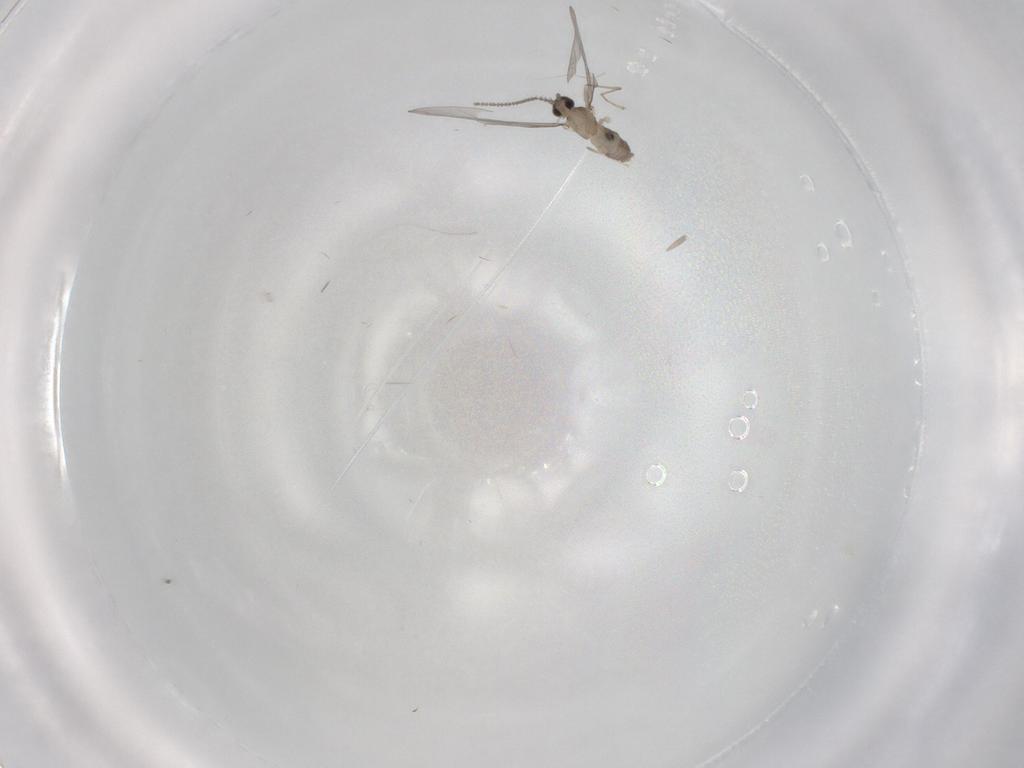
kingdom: Animalia
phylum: Arthropoda
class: Insecta
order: Diptera
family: Cecidomyiidae
